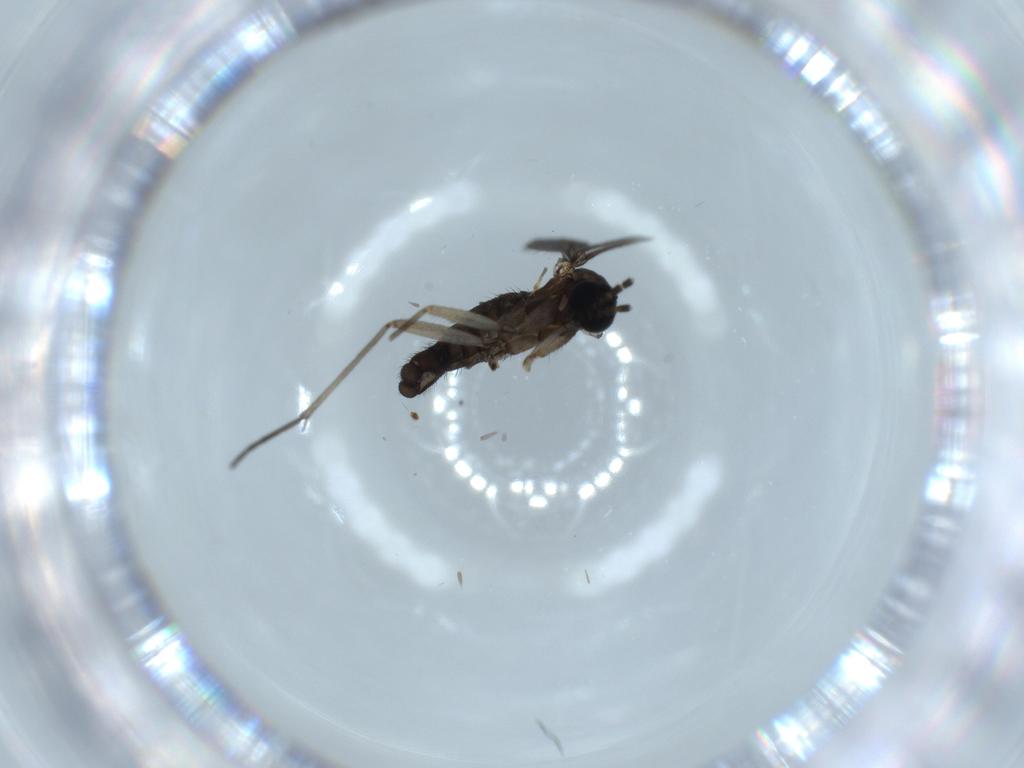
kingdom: Animalia
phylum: Arthropoda
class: Insecta
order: Diptera
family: Sciaridae
